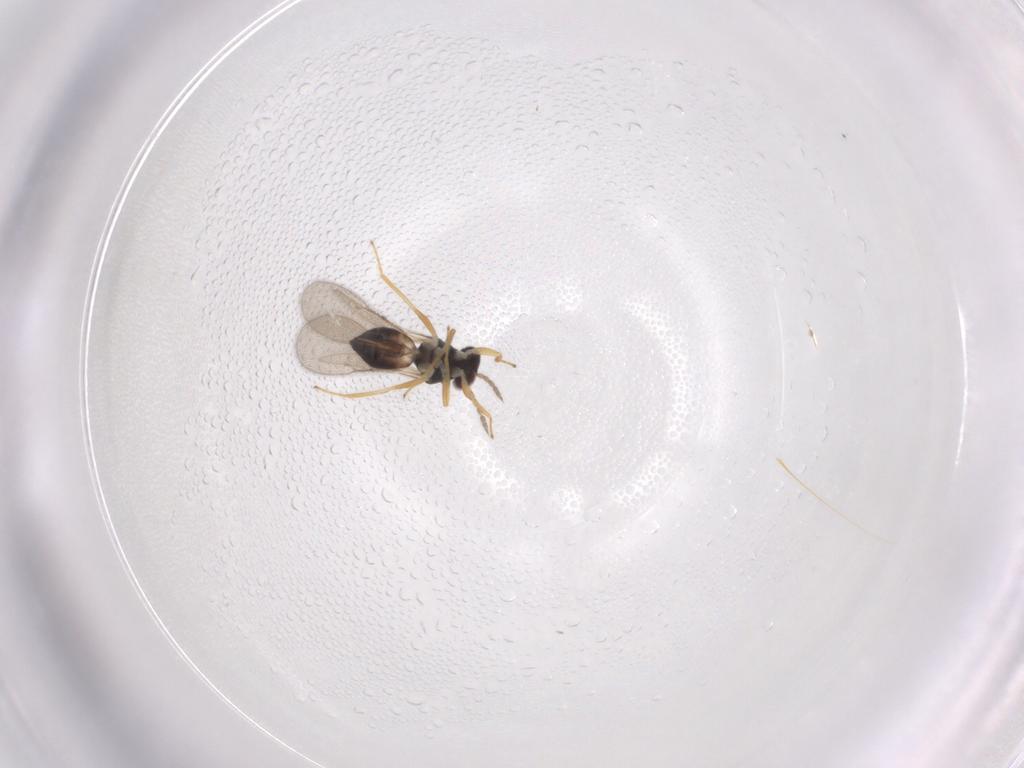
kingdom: Animalia
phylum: Arthropoda
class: Insecta
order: Hymenoptera
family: Eulophidae
